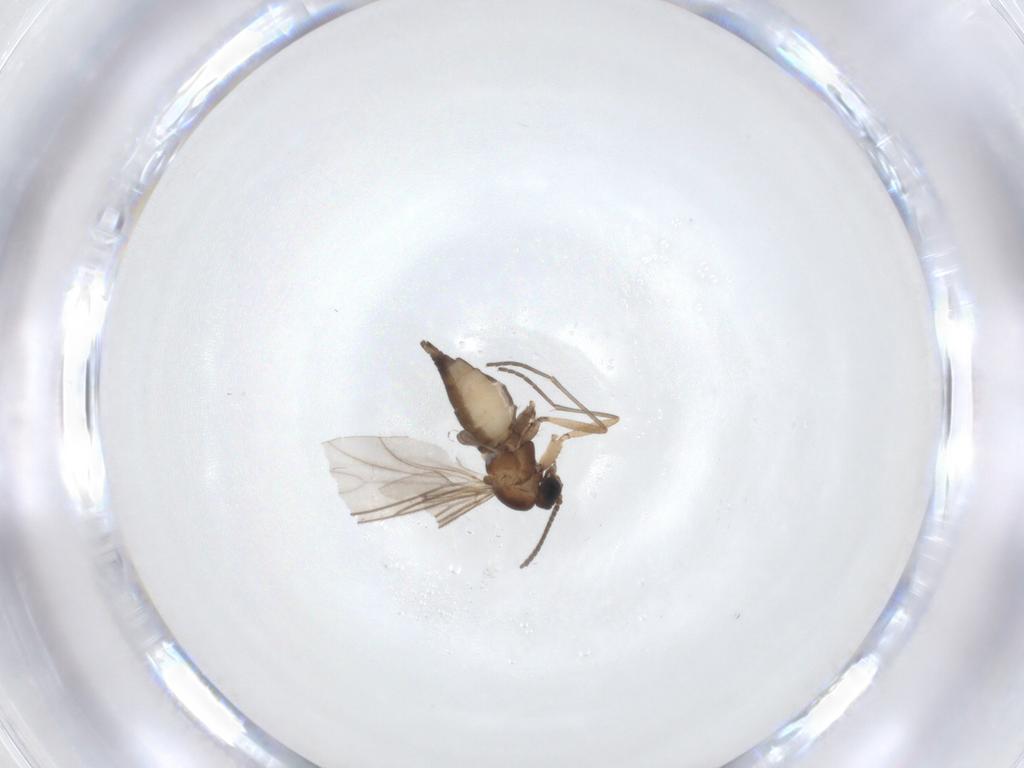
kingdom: Animalia
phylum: Arthropoda
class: Insecta
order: Diptera
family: Sciaridae
